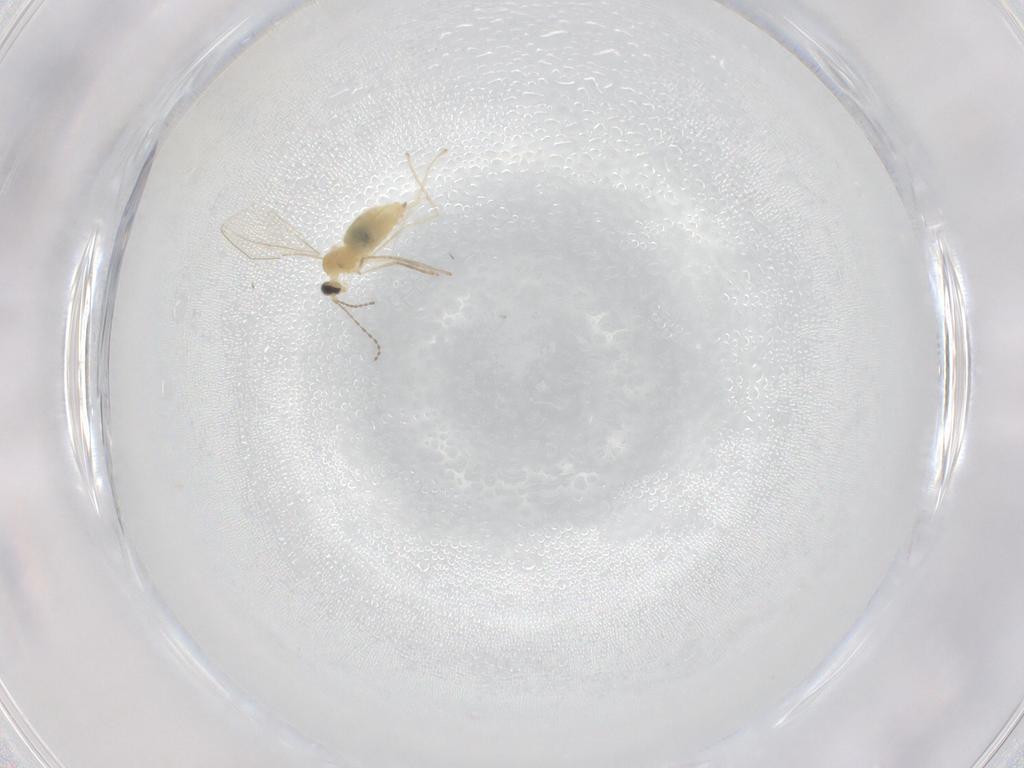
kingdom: Animalia
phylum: Arthropoda
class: Insecta
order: Diptera
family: Cecidomyiidae
